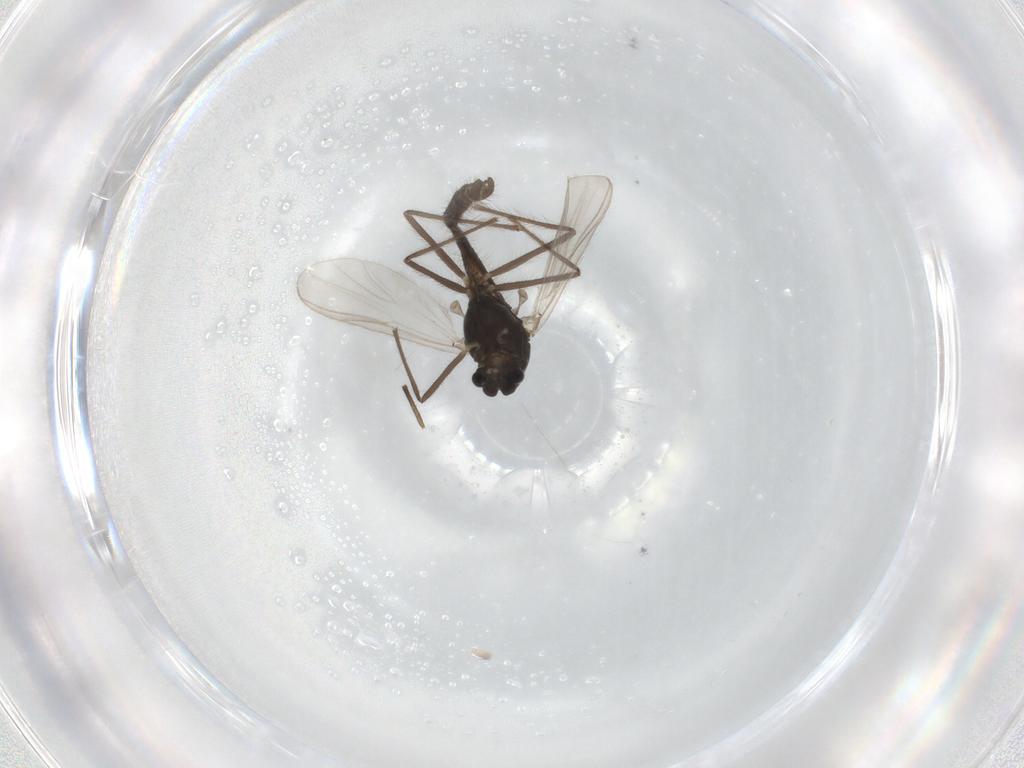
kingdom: Animalia
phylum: Arthropoda
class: Insecta
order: Diptera
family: Chironomidae
